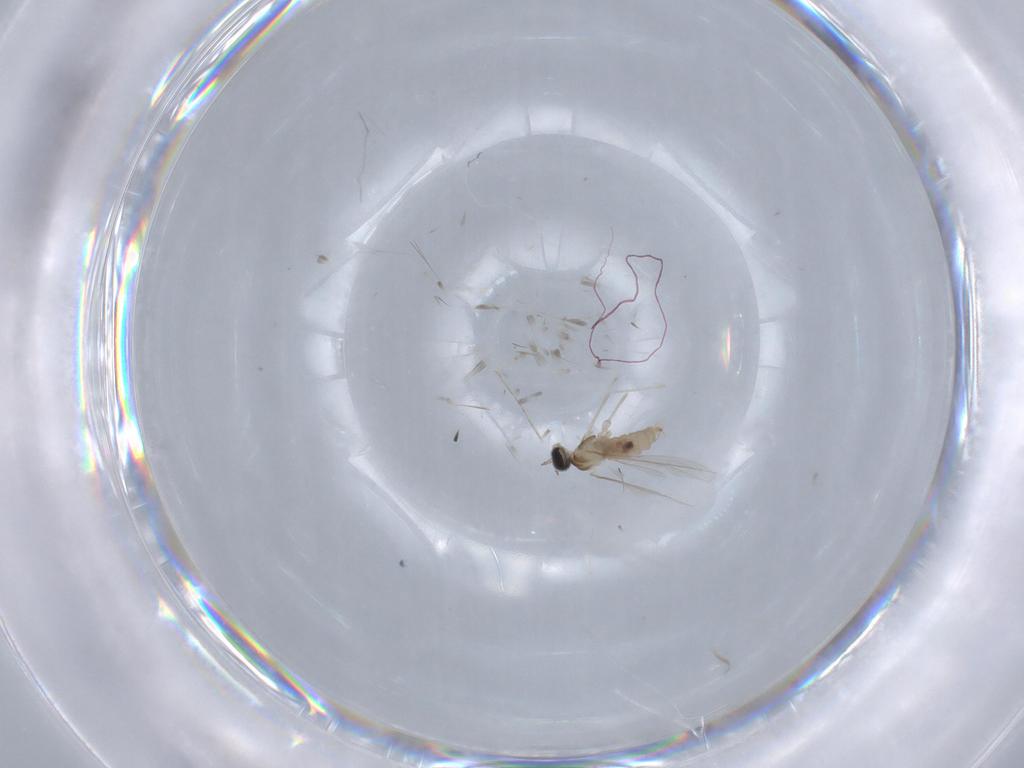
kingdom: Animalia
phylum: Arthropoda
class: Insecta
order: Diptera
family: Cecidomyiidae
